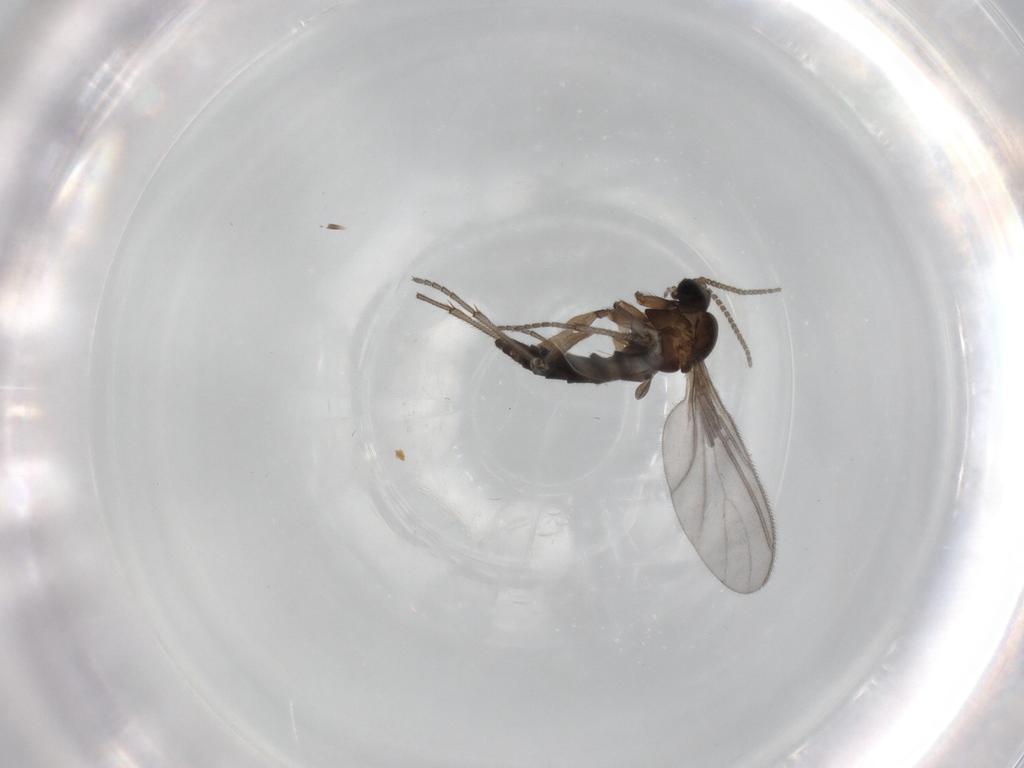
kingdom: Animalia
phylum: Arthropoda
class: Insecta
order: Diptera
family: Sciaridae
